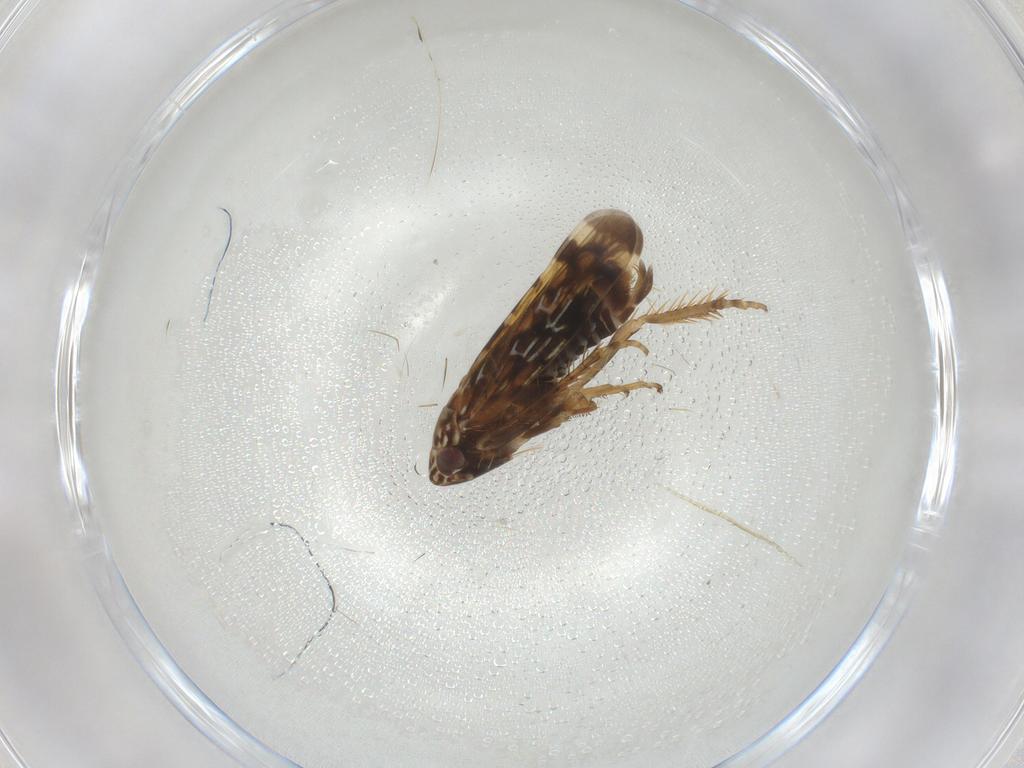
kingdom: Animalia
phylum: Arthropoda
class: Insecta
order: Hemiptera
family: Cicadellidae
